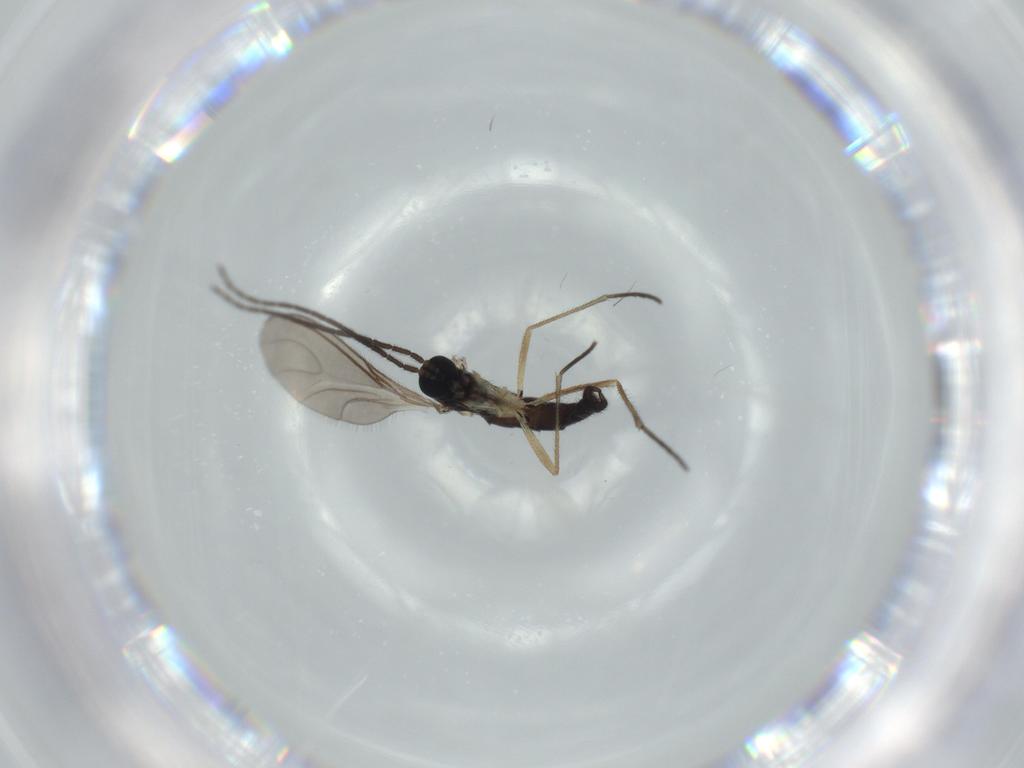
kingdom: Animalia
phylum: Arthropoda
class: Insecta
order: Diptera
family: Sciaridae
